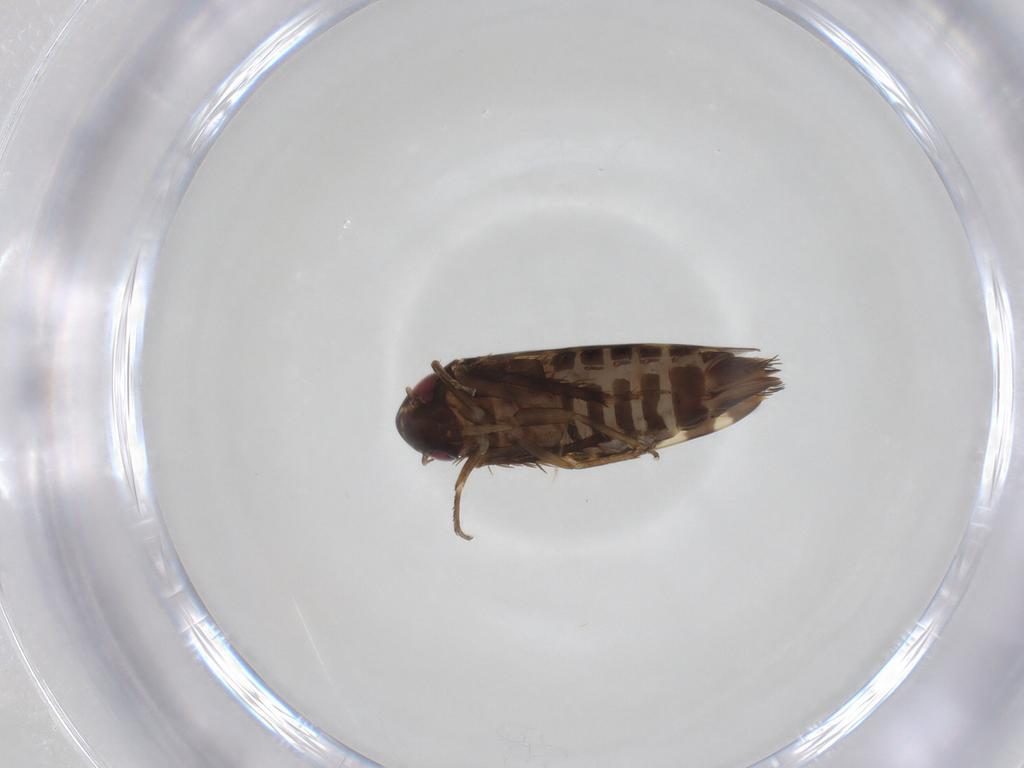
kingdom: Animalia
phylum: Arthropoda
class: Insecta
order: Hemiptera
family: Cicadellidae
